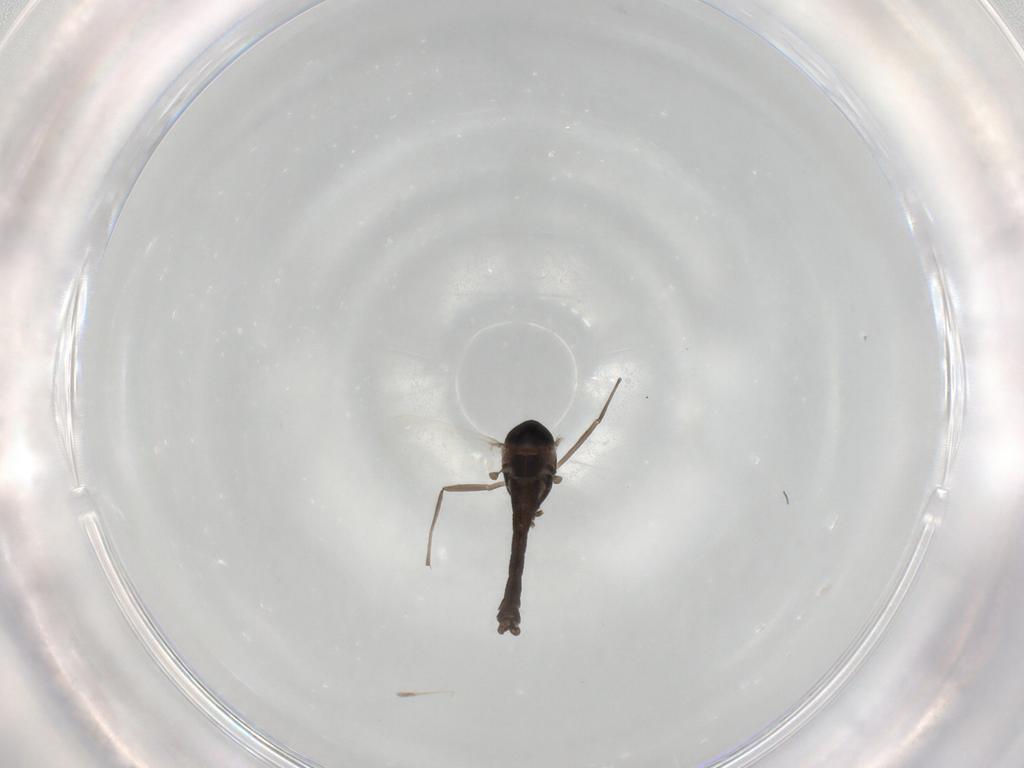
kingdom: Animalia
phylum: Arthropoda
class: Insecta
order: Diptera
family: Chironomidae
